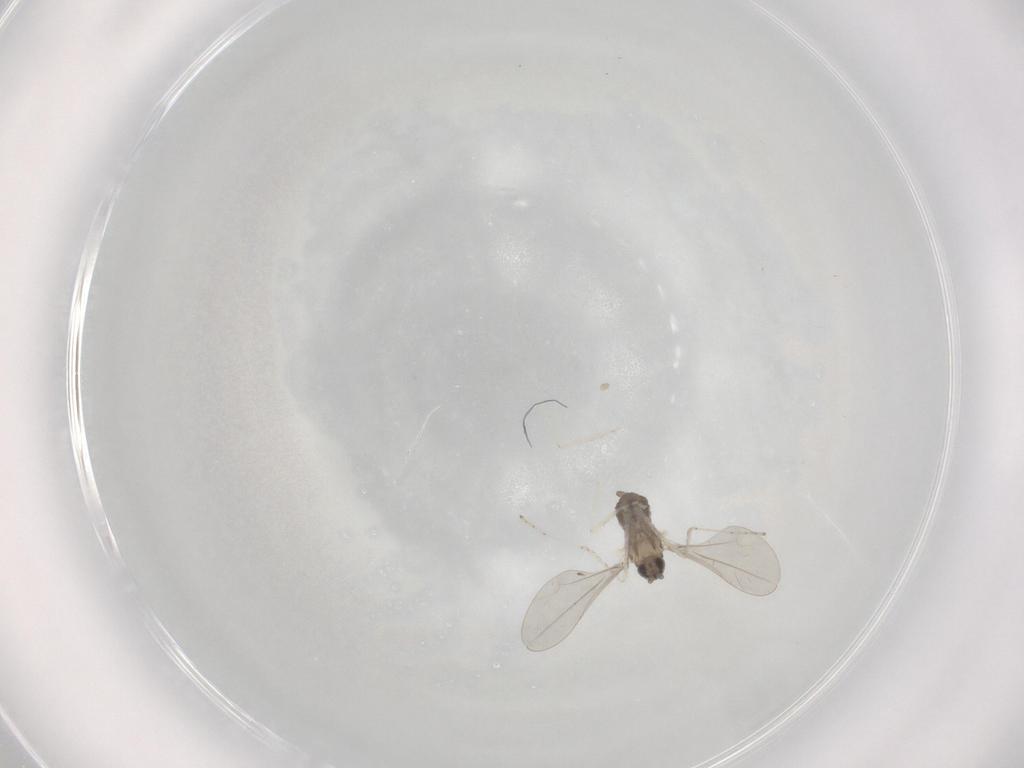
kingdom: Animalia
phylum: Arthropoda
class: Insecta
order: Diptera
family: Cecidomyiidae
